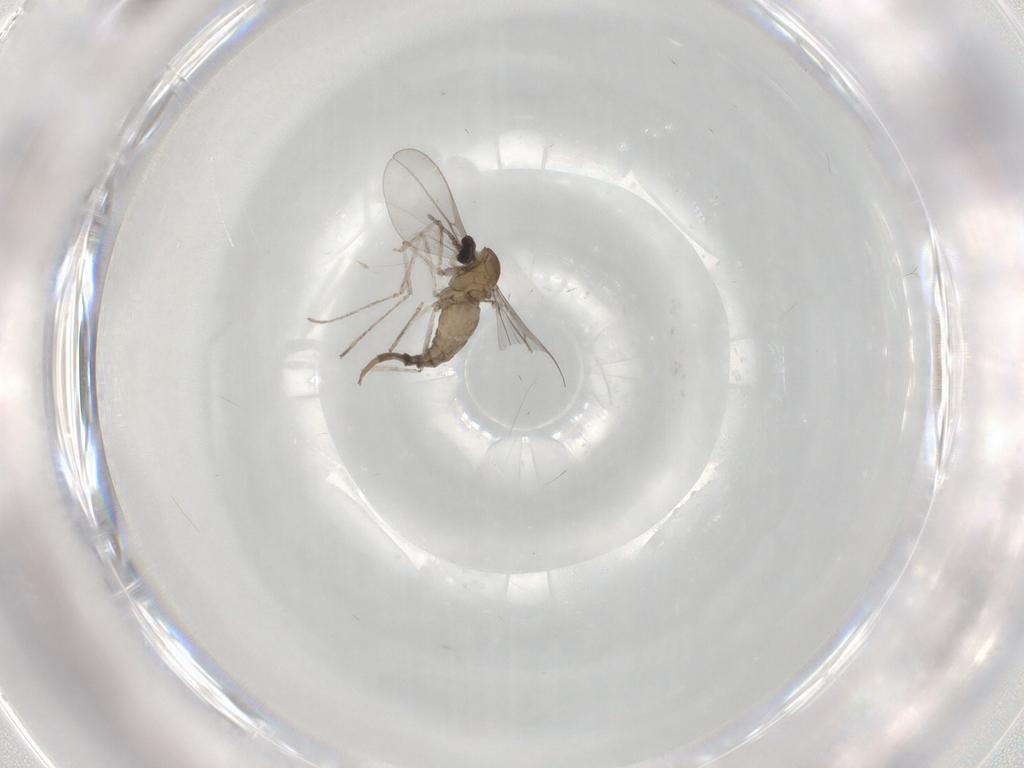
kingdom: Animalia
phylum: Arthropoda
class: Insecta
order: Diptera
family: Cecidomyiidae
